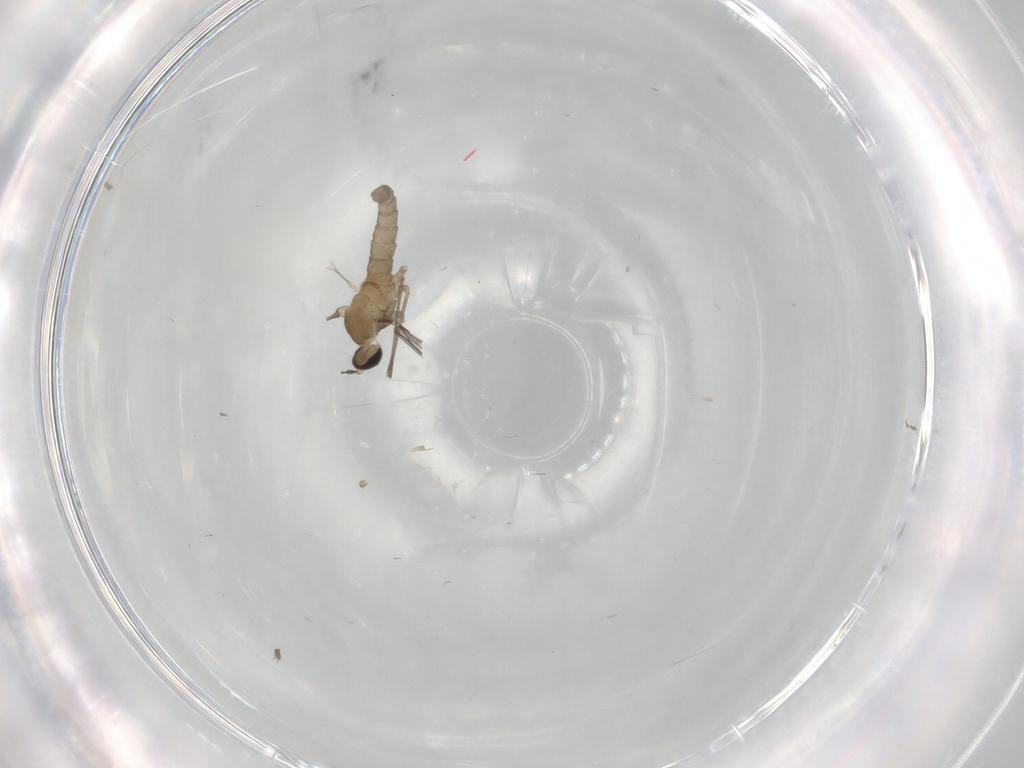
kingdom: Animalia
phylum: Arthropoda
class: Insecta
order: Diptera
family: Phoridae
